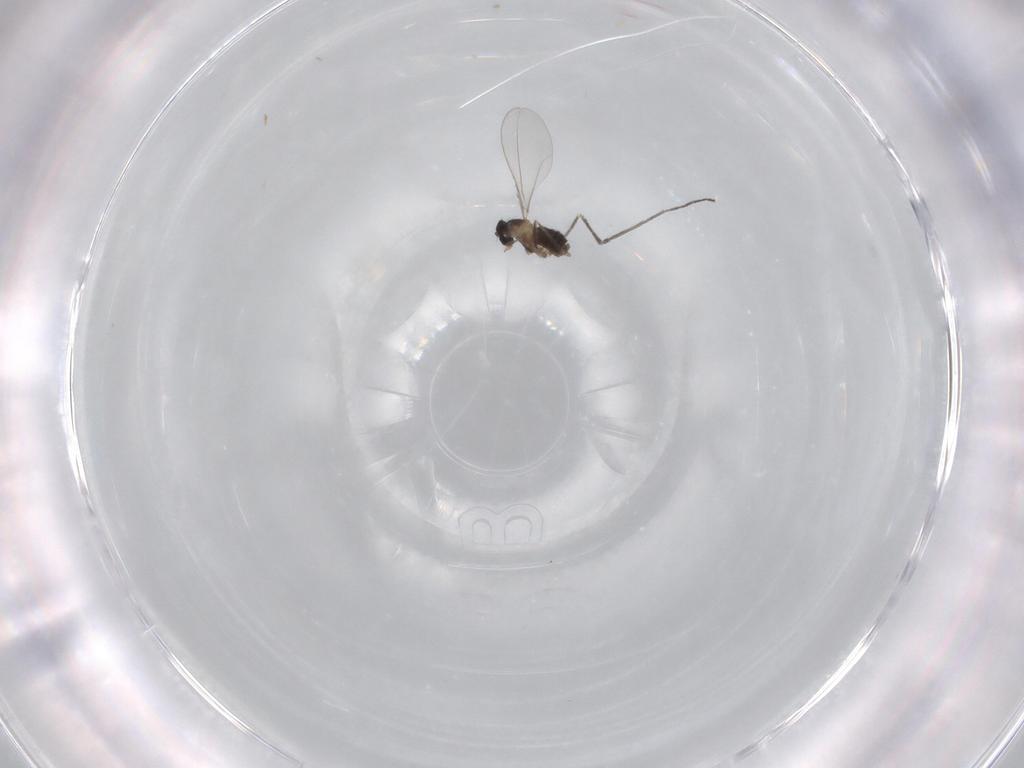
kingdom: Animalia
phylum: Arthropoda
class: Insecta
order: Diptera
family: Cecidomyiidae
